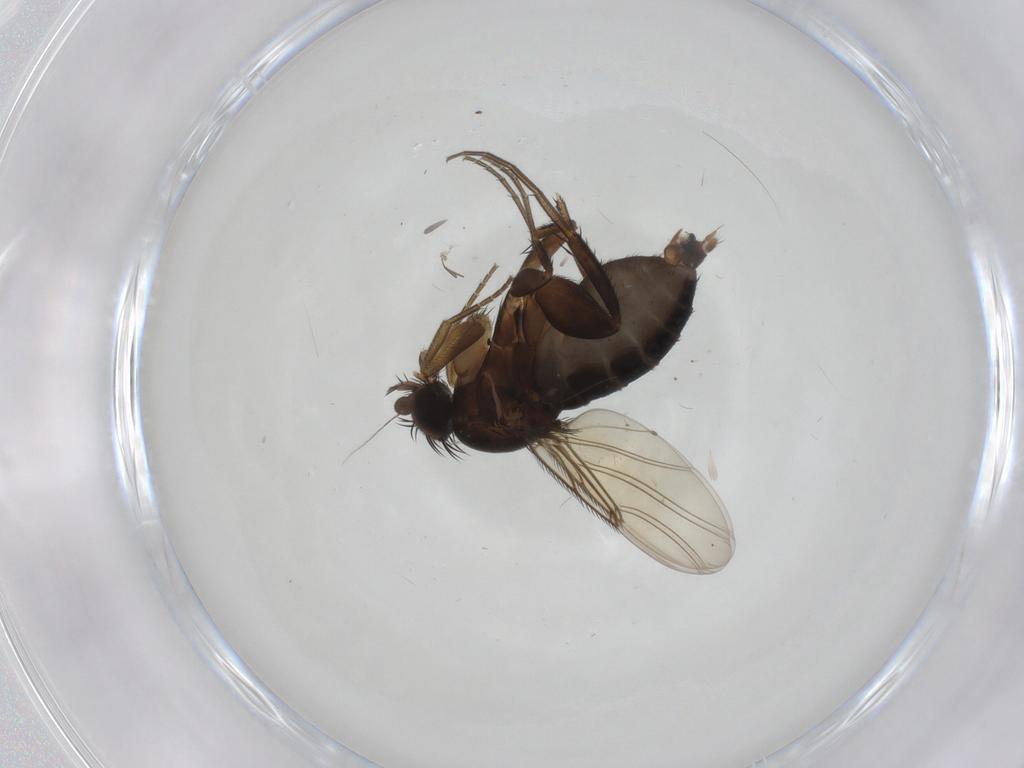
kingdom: Animalia
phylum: Arthropoda
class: Insecta
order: Diptera
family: Phoridae
